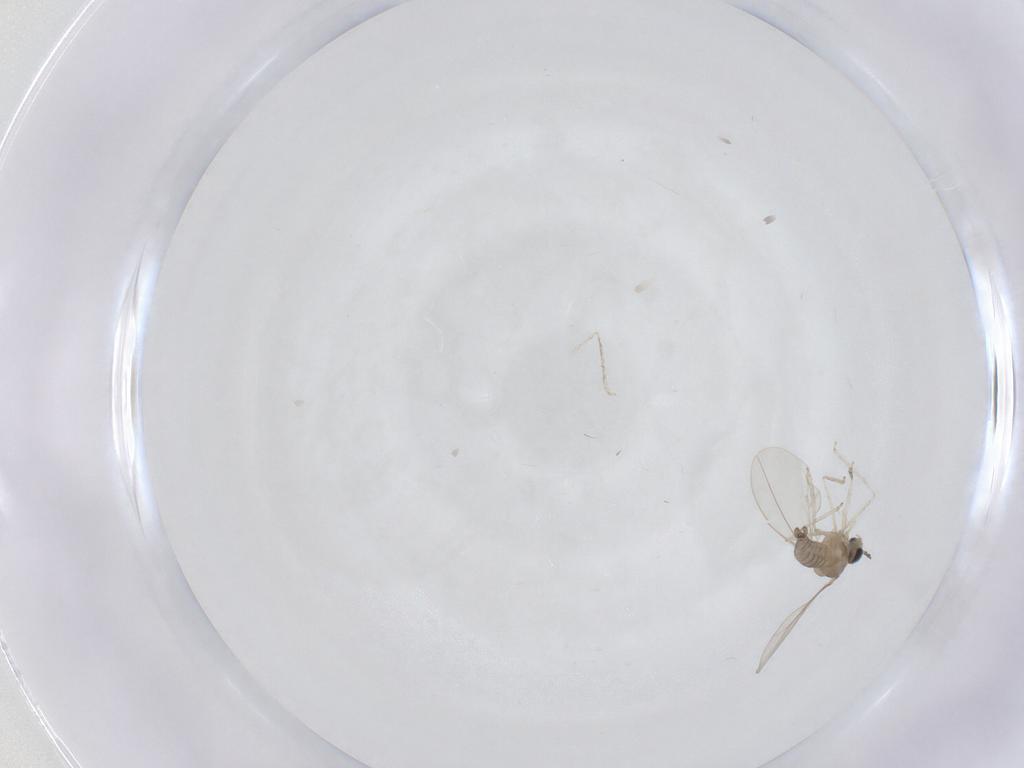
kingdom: Animalia
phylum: Arthropoda
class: Insecta
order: Diptera
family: Cecidomyiidae
